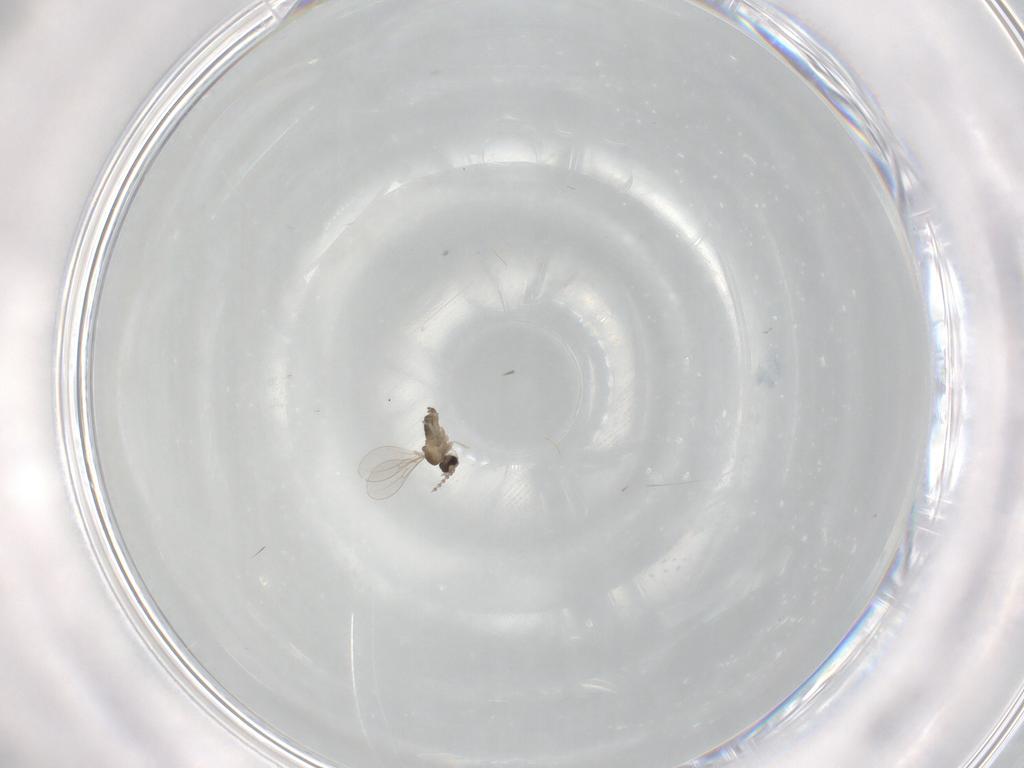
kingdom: Animalia
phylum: Arthropoda
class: Insecta
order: Diptera
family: Cecidomyiidae
